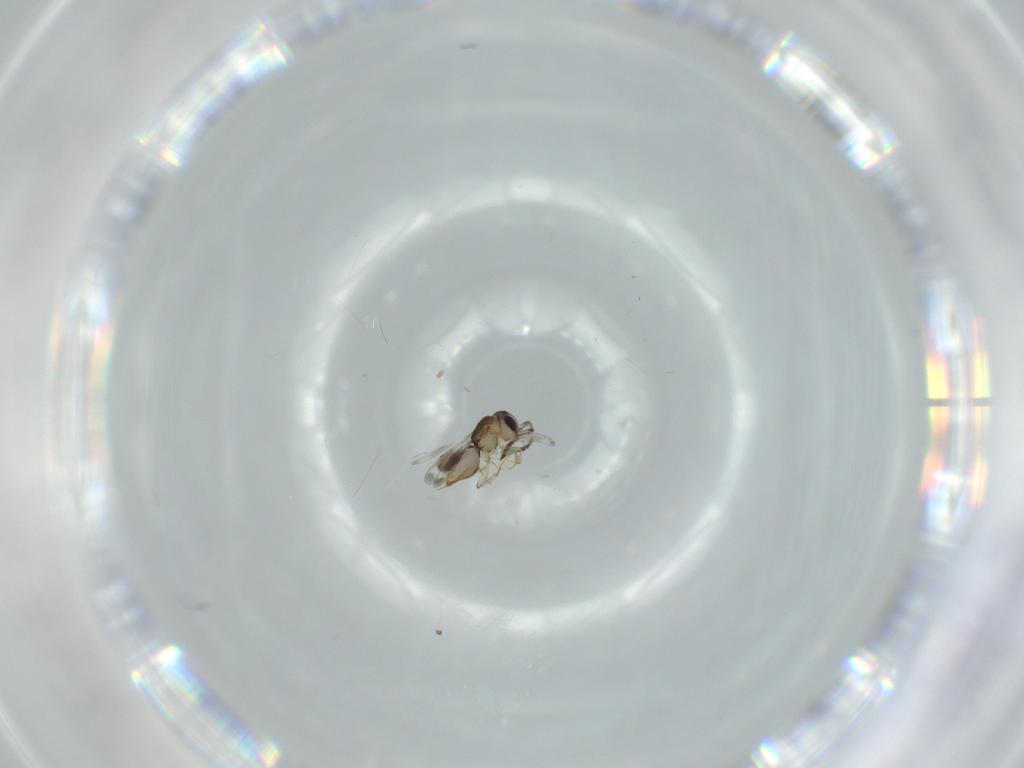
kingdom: Animalia
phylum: Arthropoda
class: Insecta
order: Hymenoptera
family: Scelionidae
